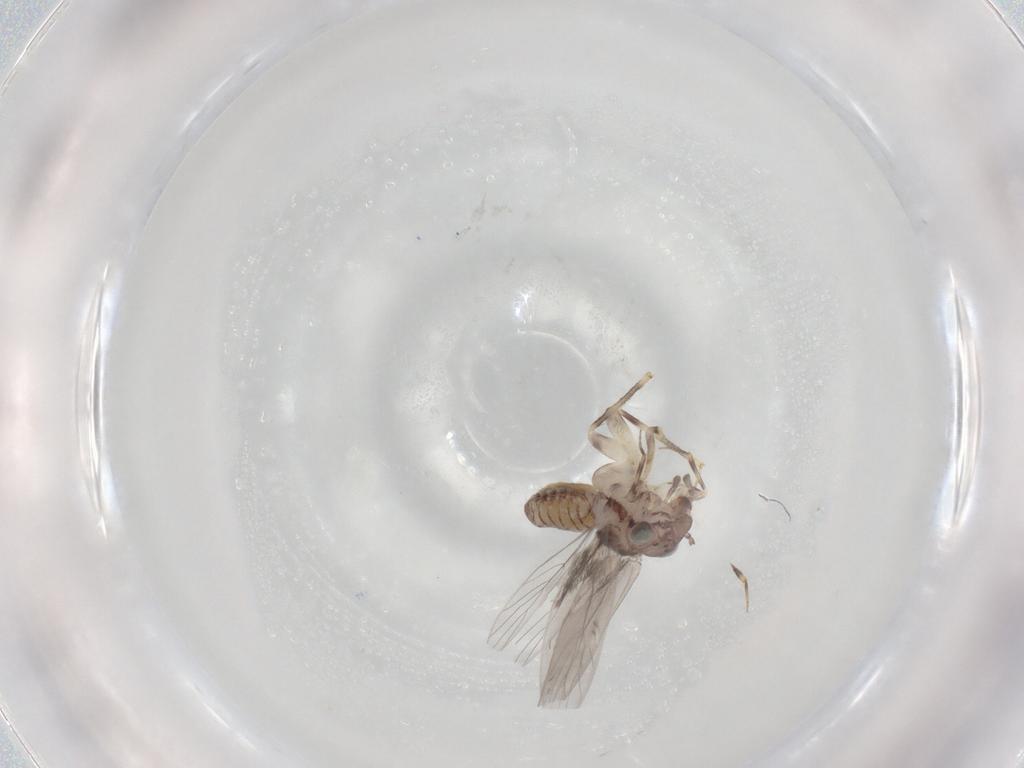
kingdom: Animalia
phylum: Arthropoda
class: Insecta
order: Psocodea
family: Lepidopsocidae
